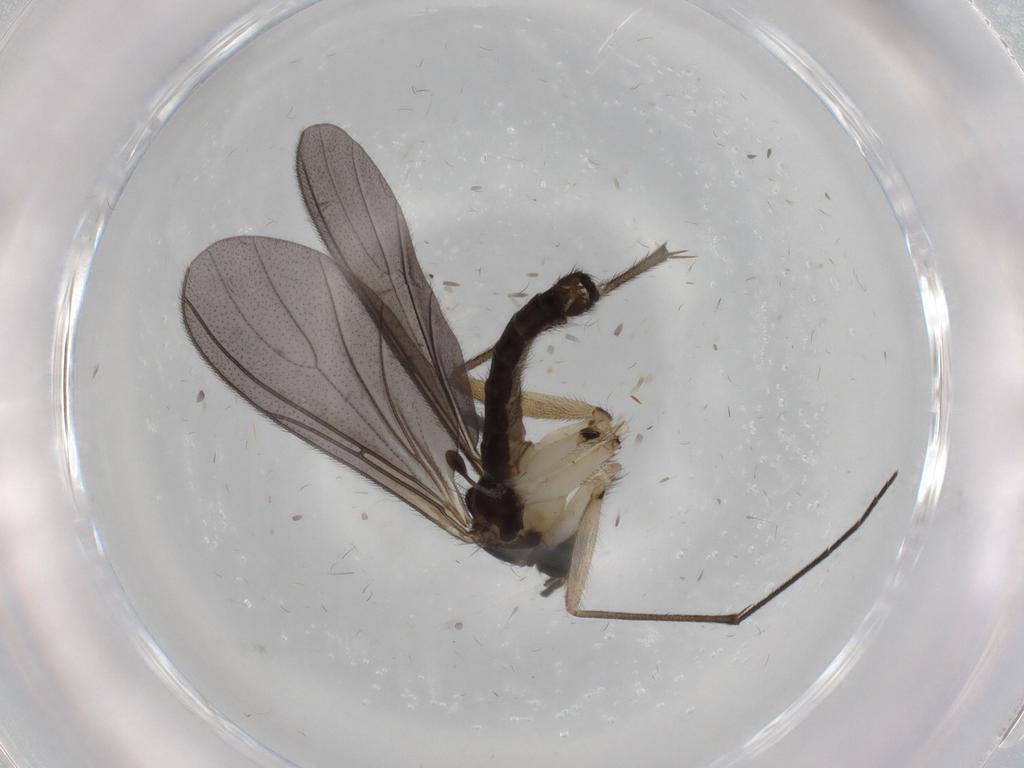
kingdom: Animalia
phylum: Arthropoda
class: Insecta
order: Diptera
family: Sciaridae
